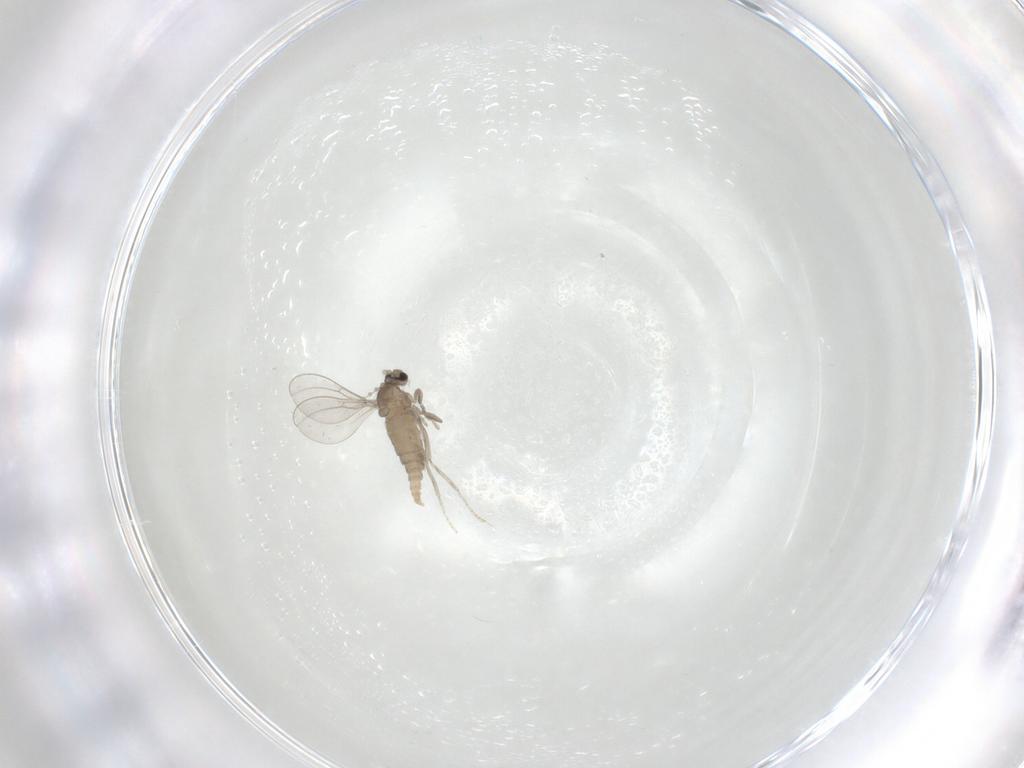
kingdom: Animalia
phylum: Arthropoda
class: Insecta
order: Diptera
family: Cecidomyiidae
